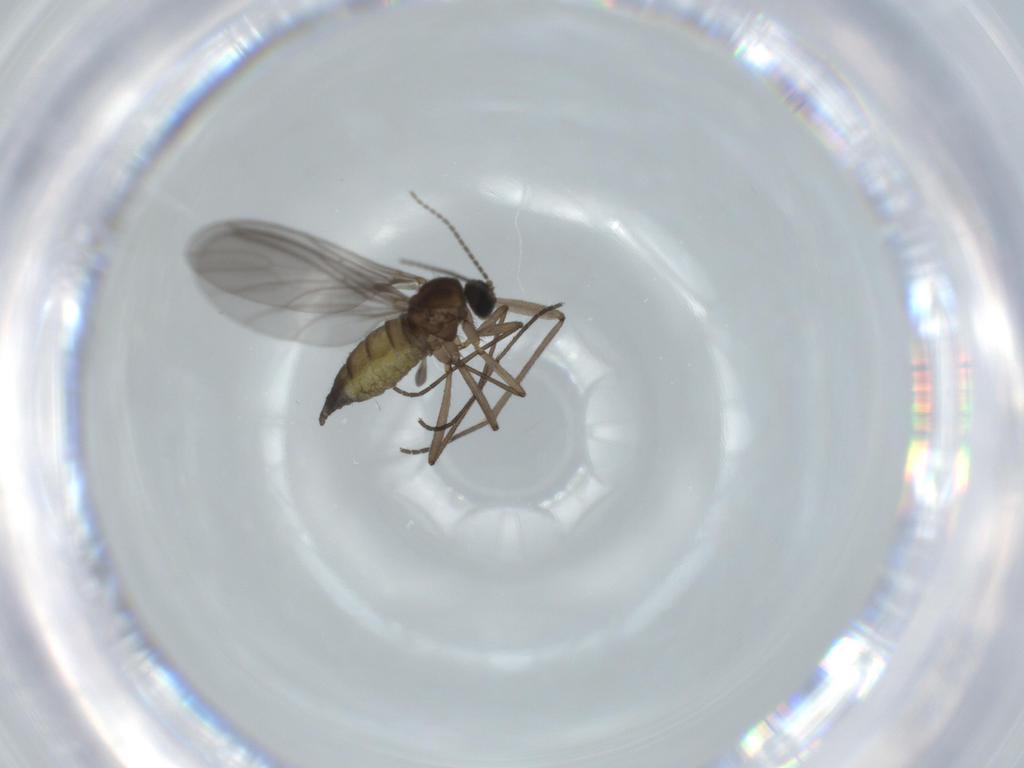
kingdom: Animalia
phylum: Arthropoda
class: Insecta
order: Diptera
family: Sciaridae
